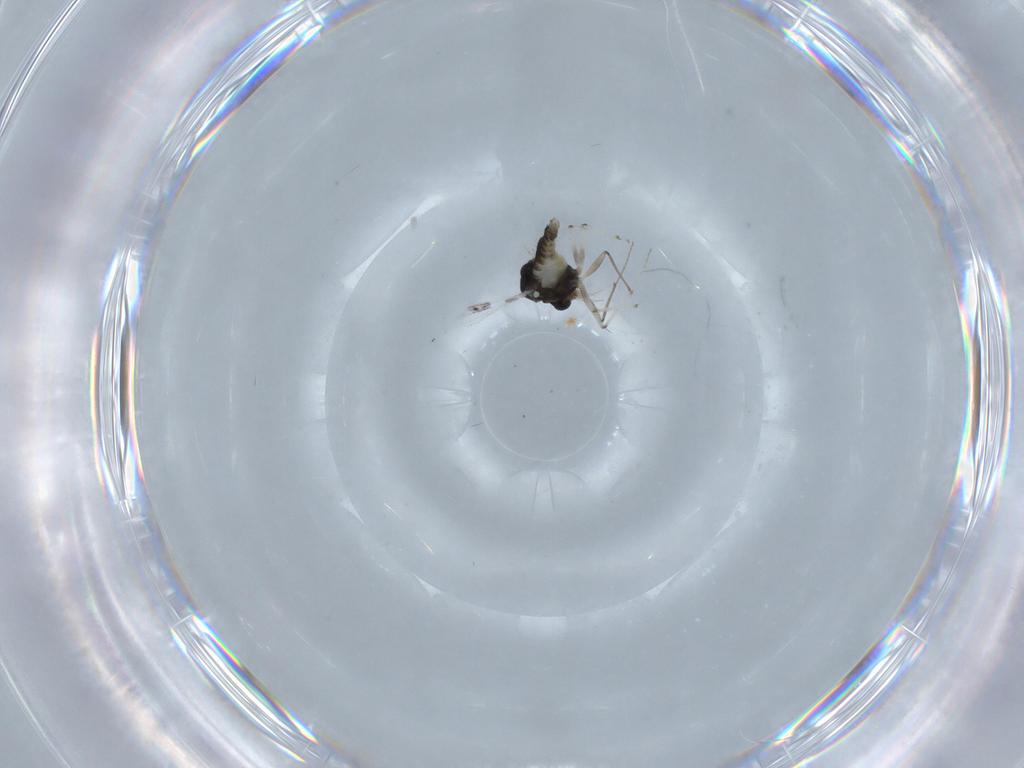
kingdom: Animalia
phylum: Arthropoda
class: Insecta
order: Diptera
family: Chironomidae
